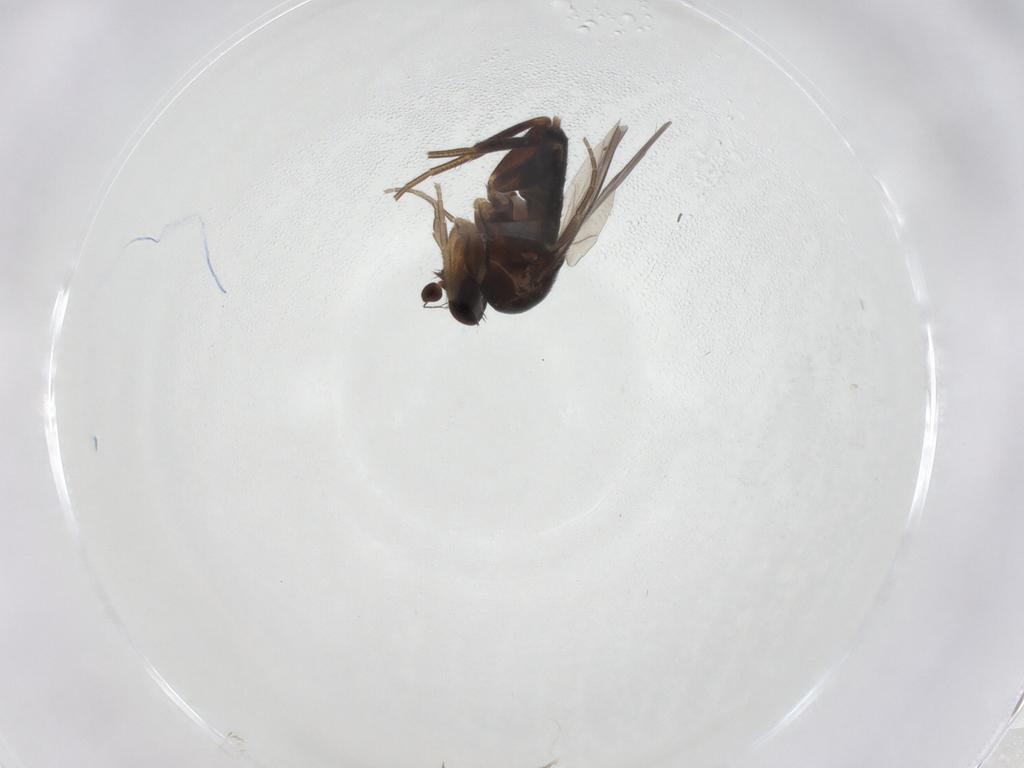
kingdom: Animalia
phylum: Arthropoda
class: Insecta
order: Diptera
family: Phoridae
